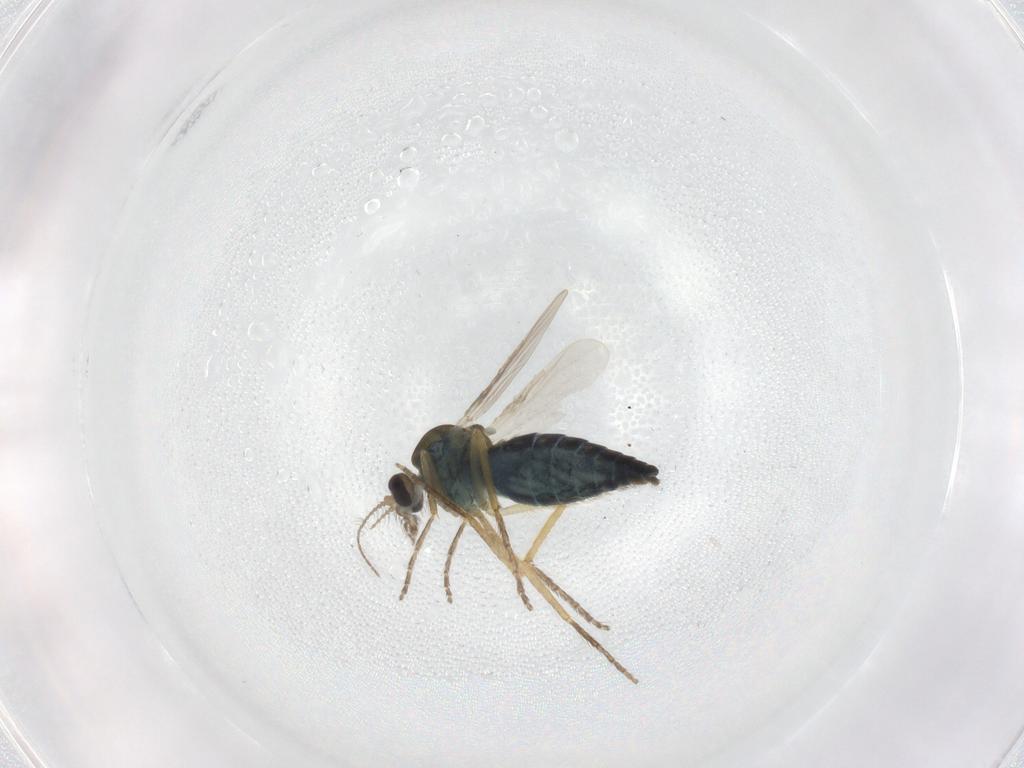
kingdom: Animalia
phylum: Arthropoda
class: Insecta
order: Diptera
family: Ceratopogonidae
